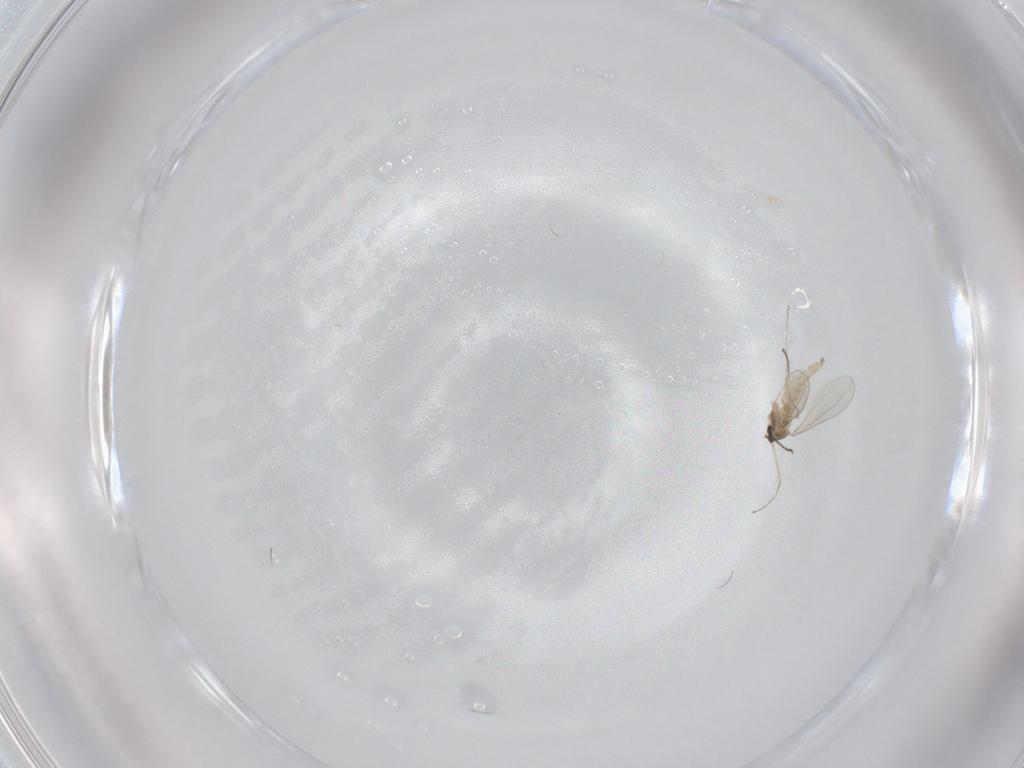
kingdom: Animalia
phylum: Arthropoda
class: Insecta
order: Diptera
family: Cecidomyiidae
